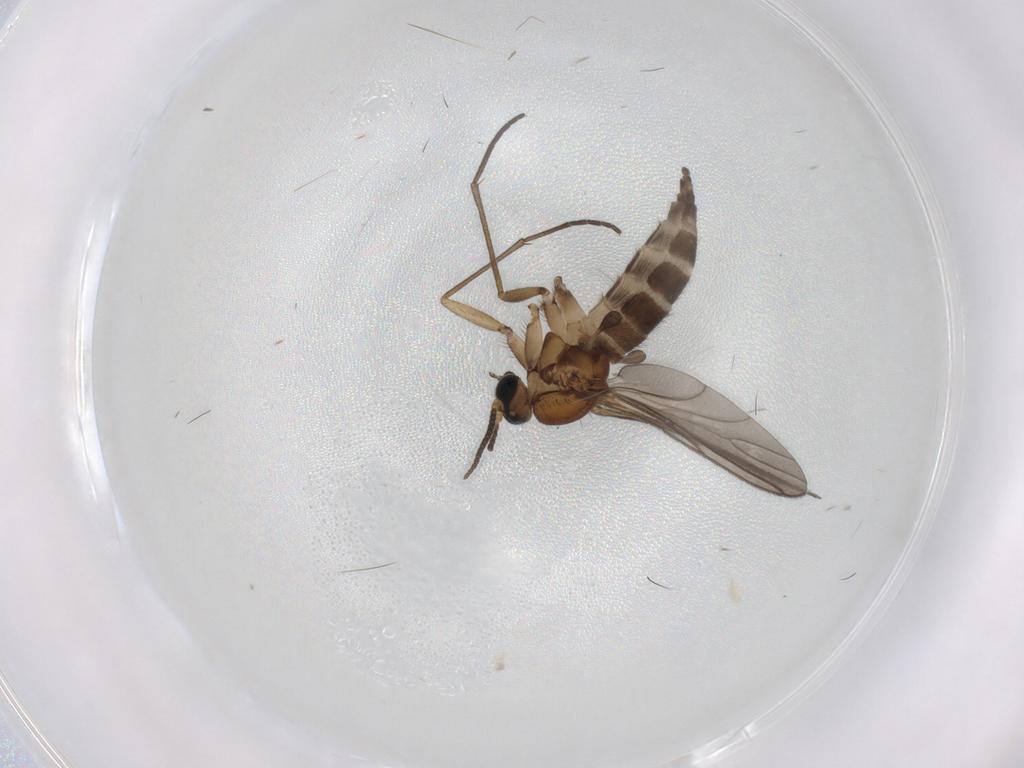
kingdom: Animalia
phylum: Arthropoda
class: Insecta
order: Diptera
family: Sciaridae
